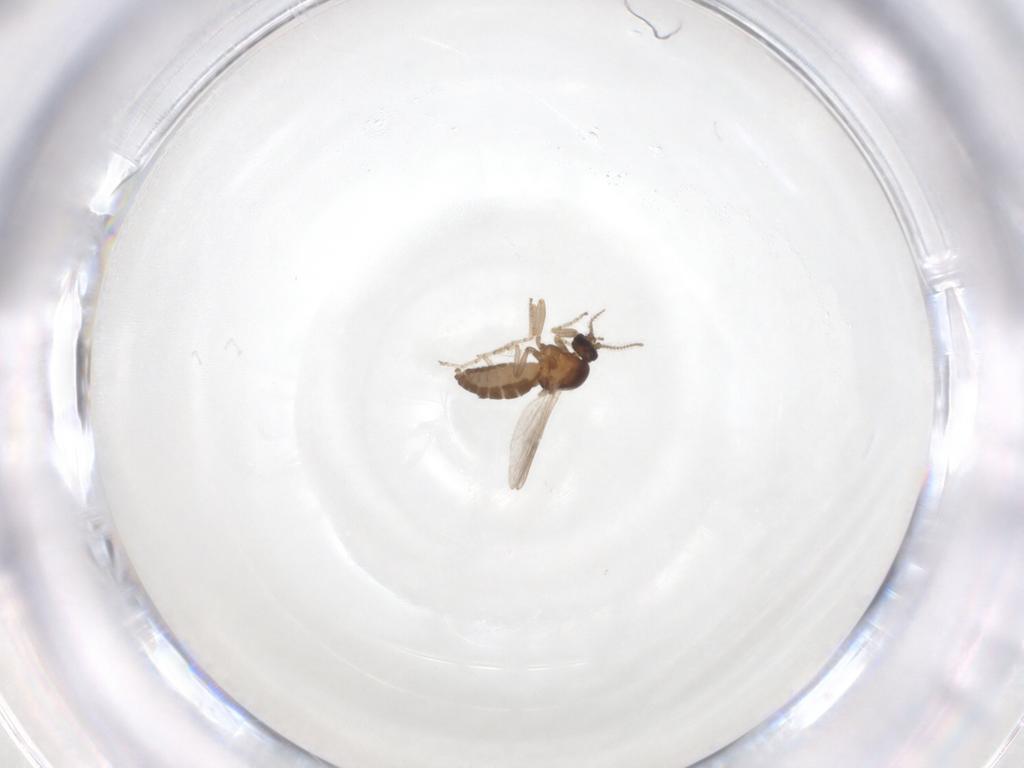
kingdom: Animalia
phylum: Arthropoda
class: Insecta
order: Diptera
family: Ceratopogonidae
